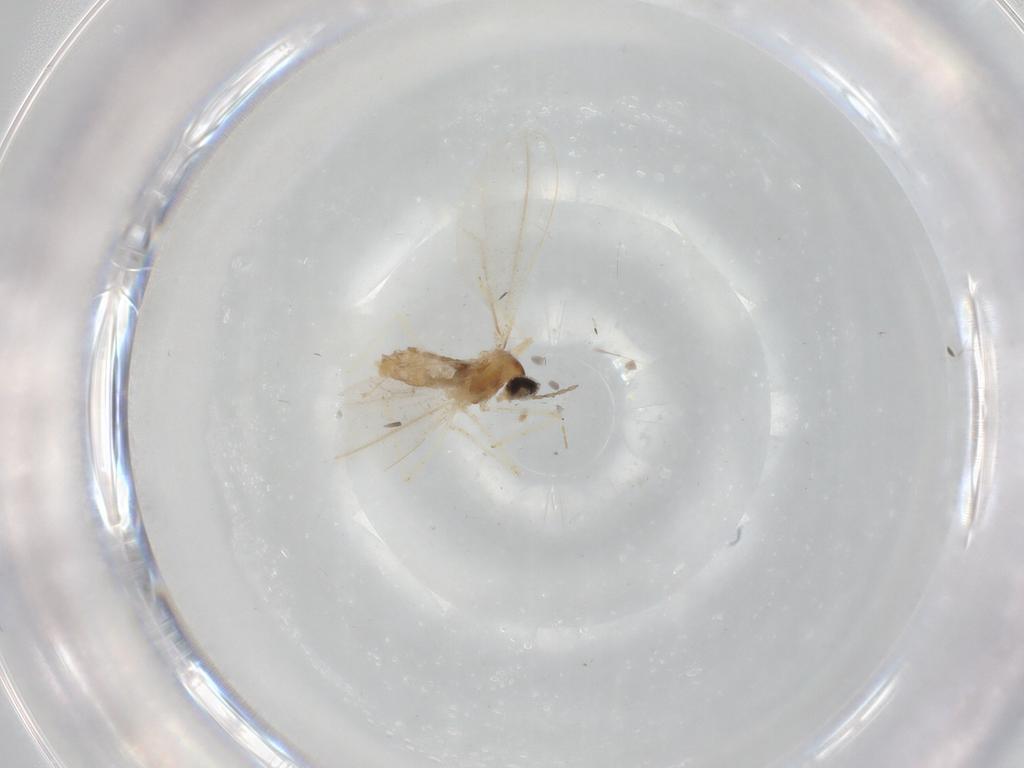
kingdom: Animalia
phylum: Arthropoda
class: Insecta
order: Diptera
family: Cecidomyiidae
